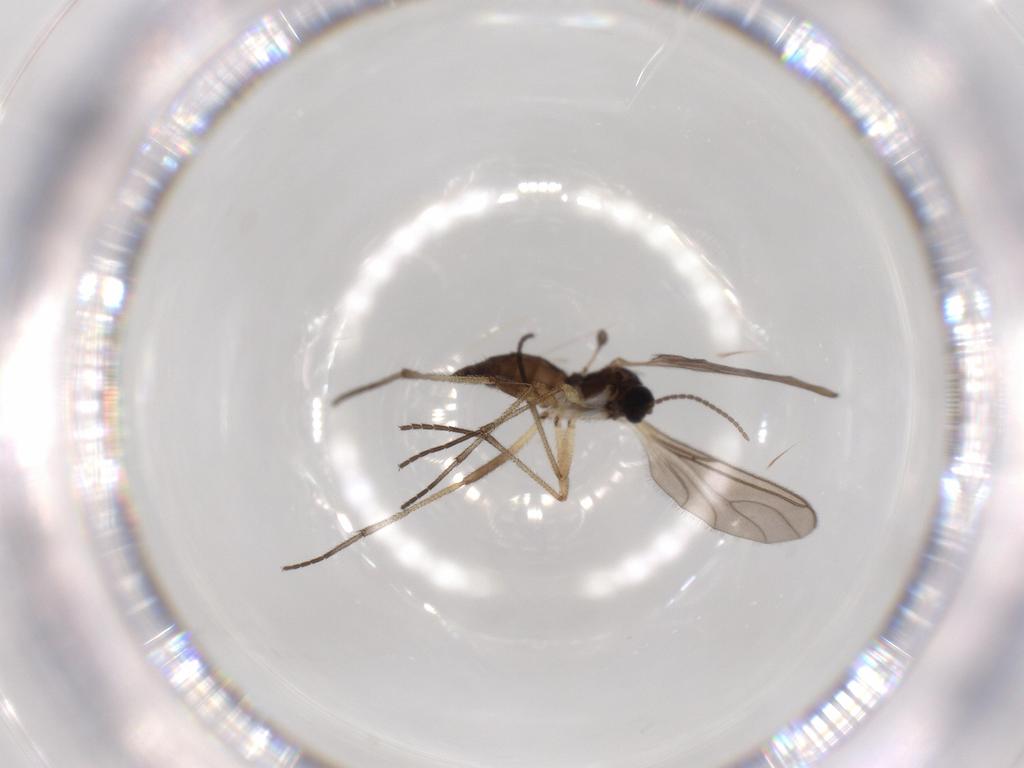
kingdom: Animalia
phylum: Arthropoda
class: Insecta
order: Diptera
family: Sciaridae
